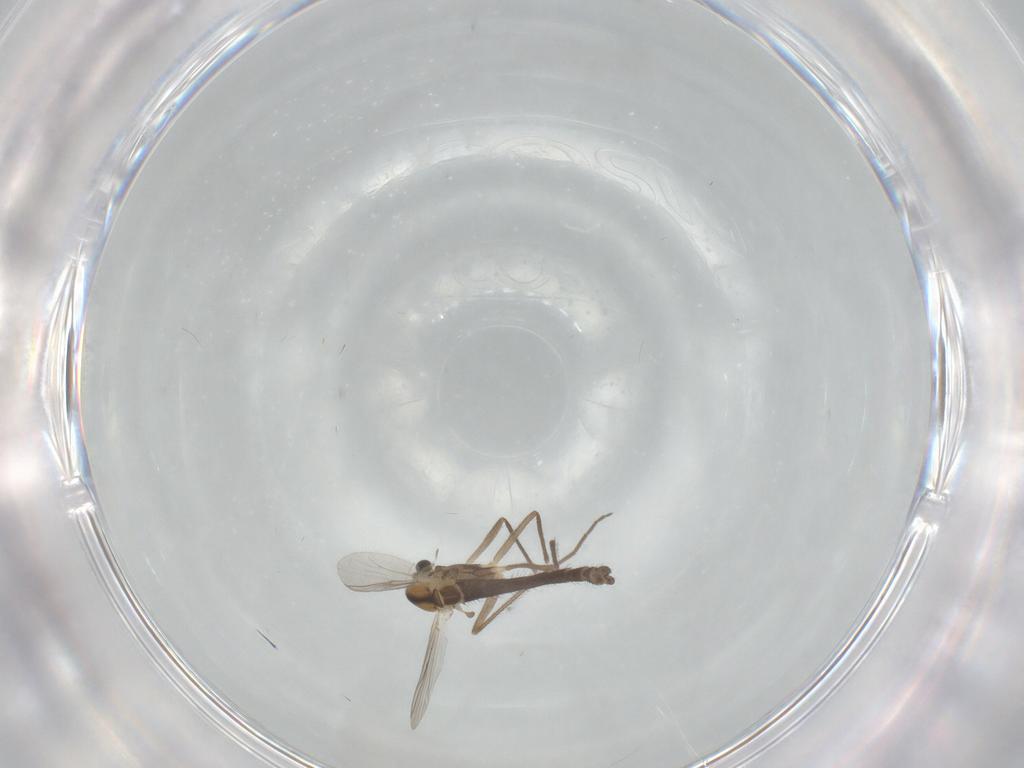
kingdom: Animalia
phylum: Arthropoda
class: Insecta
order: Diptera
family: Chironomidae
